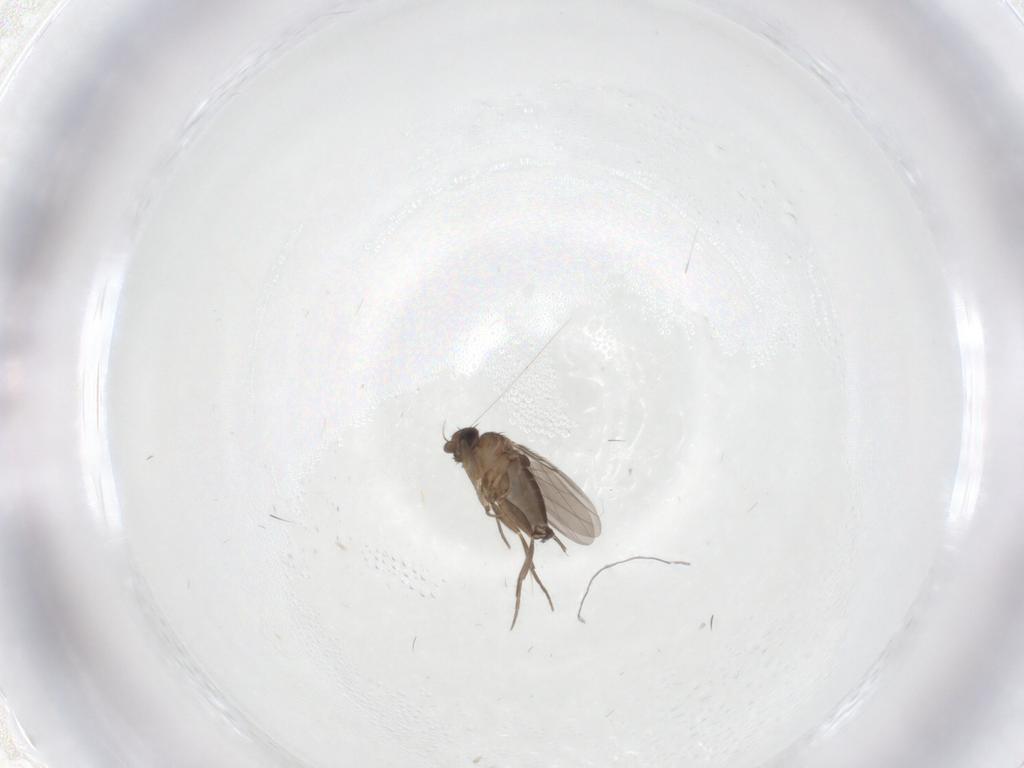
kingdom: Animalia
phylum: Arthropoda
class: Insecta
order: Diptera
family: Phoridae
